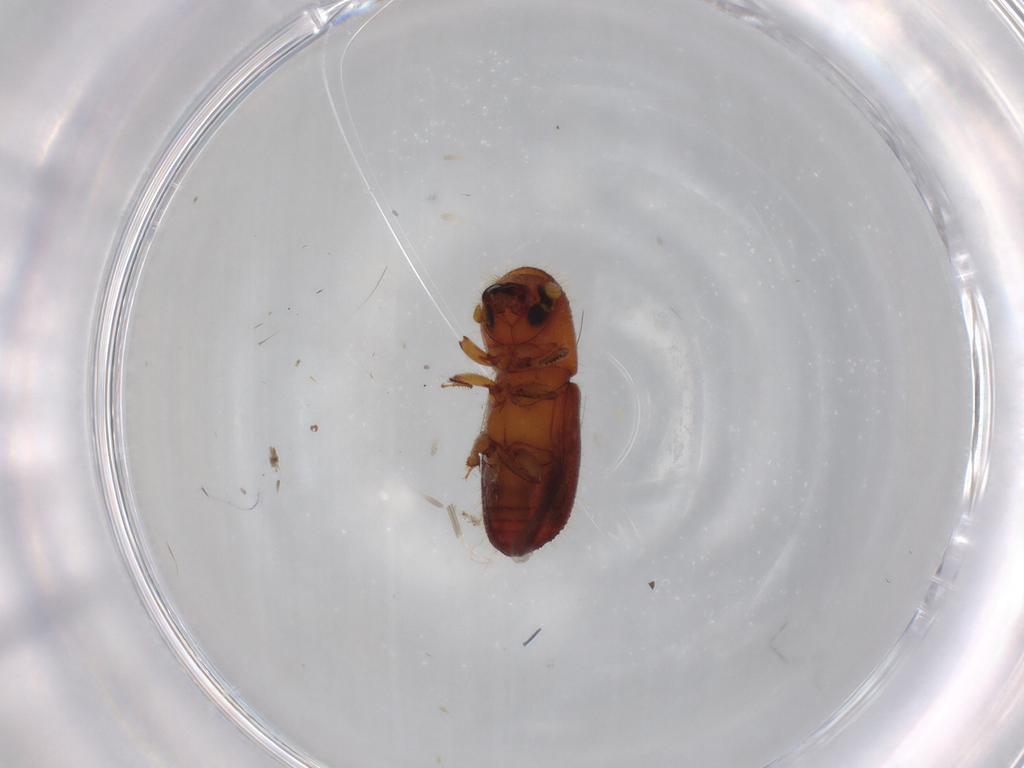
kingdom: Animalia
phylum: Arthropoda
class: Insecta
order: Coleoptera
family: Curculionidae
